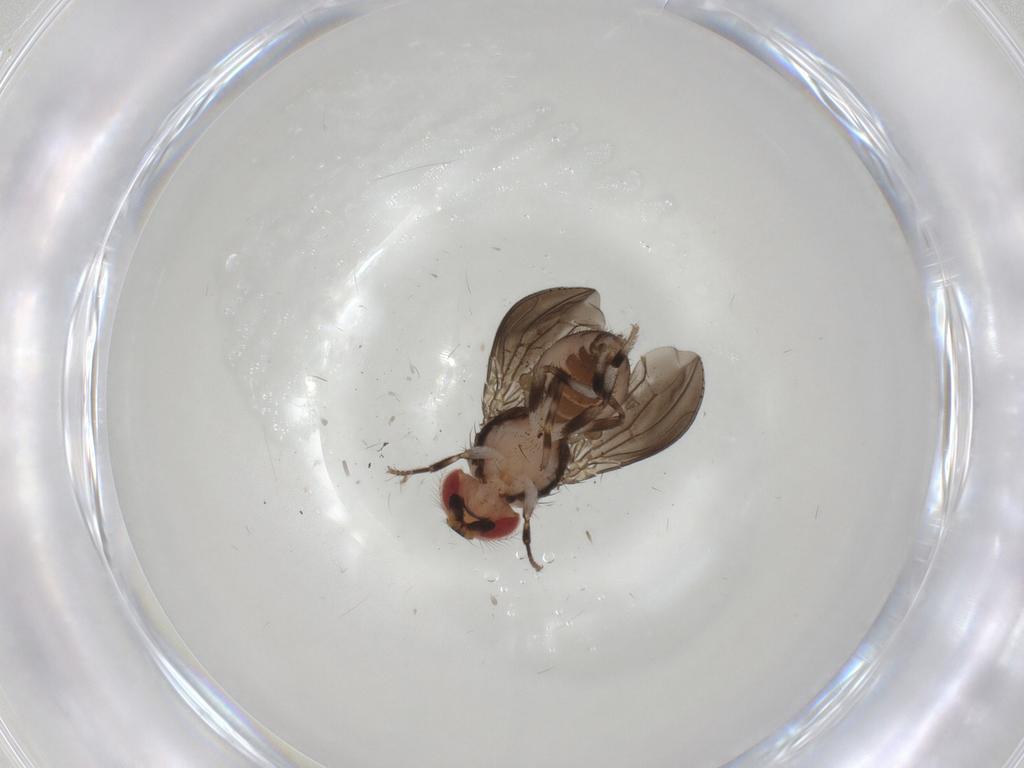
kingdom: Animalia
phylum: Arthropoda
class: Insecta
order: Diptera
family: Drosophilidae
